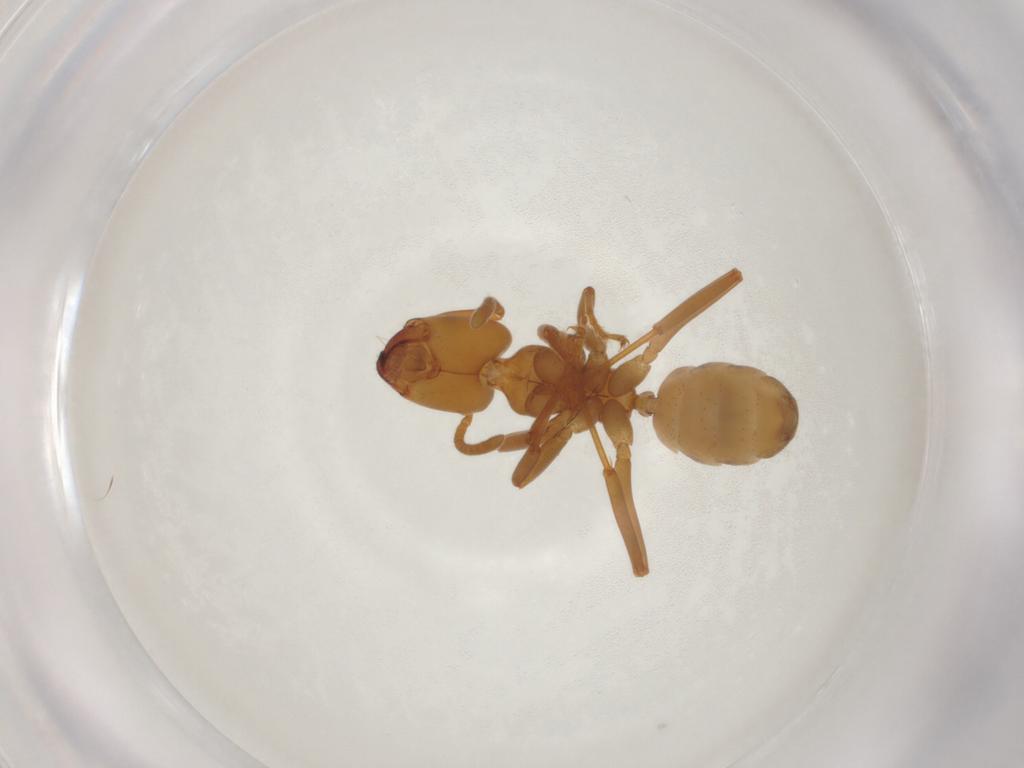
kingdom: Animalia
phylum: Arthropoda
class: Insecta
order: Hymenoptera
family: Formicidae
